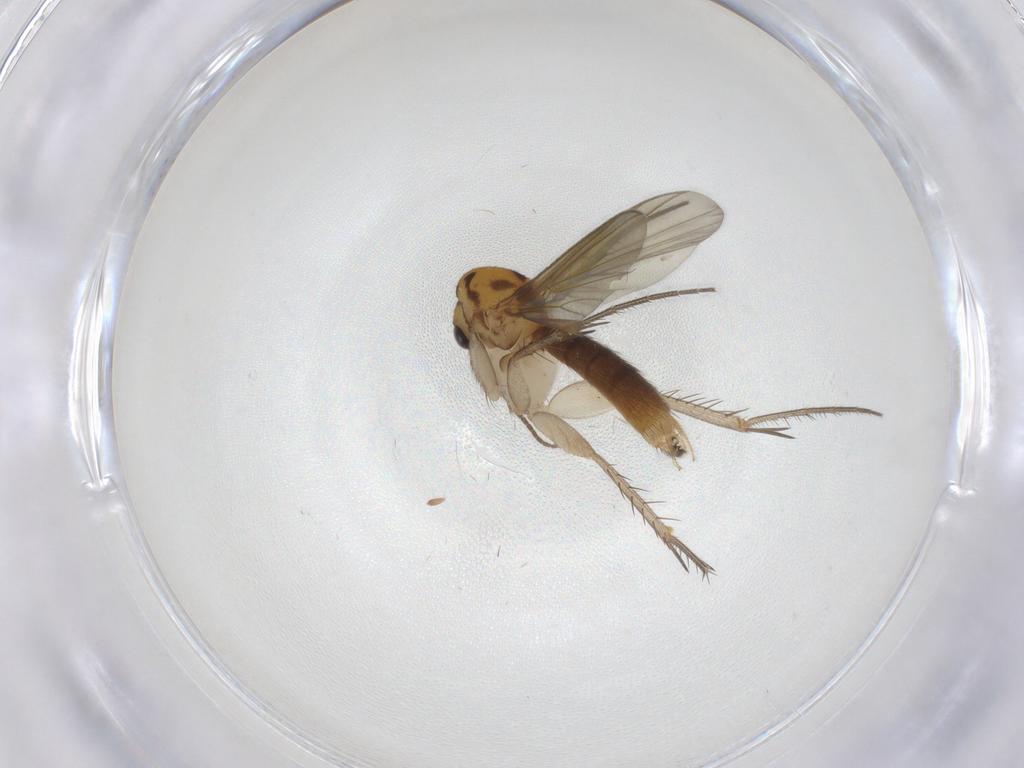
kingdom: Animalia
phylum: Arthropoda
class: Insecta
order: Diptera
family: Mycetophilidae
